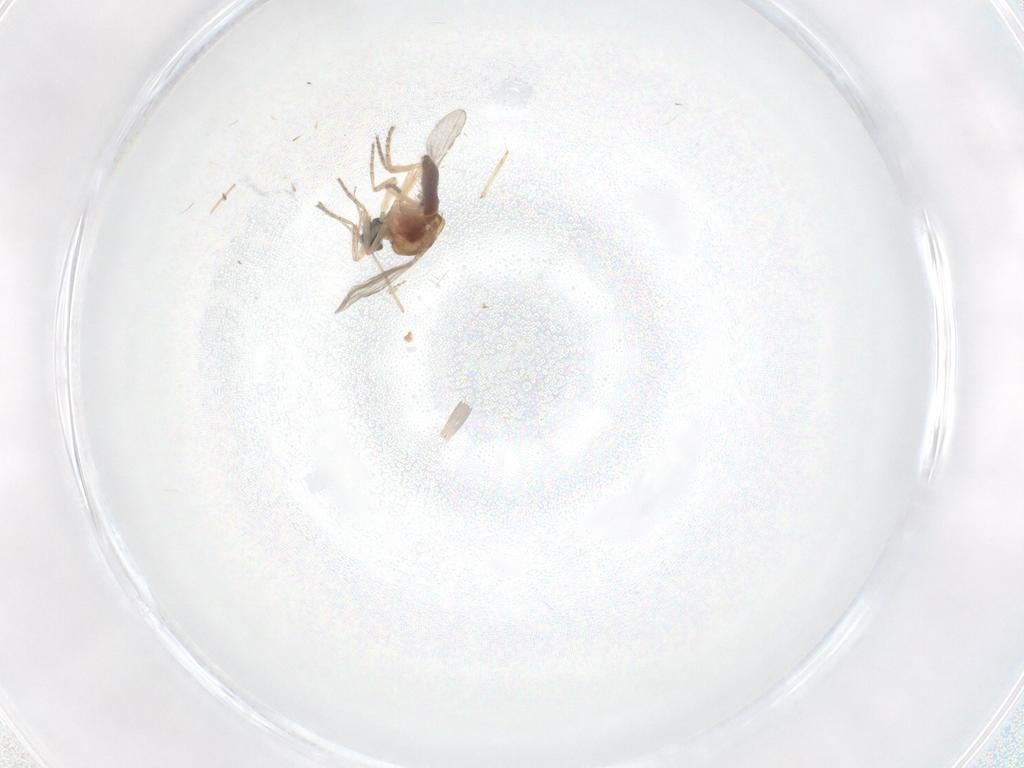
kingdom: Animalia
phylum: Arthropoda
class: Insecta
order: Diptera
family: Chironomidae
